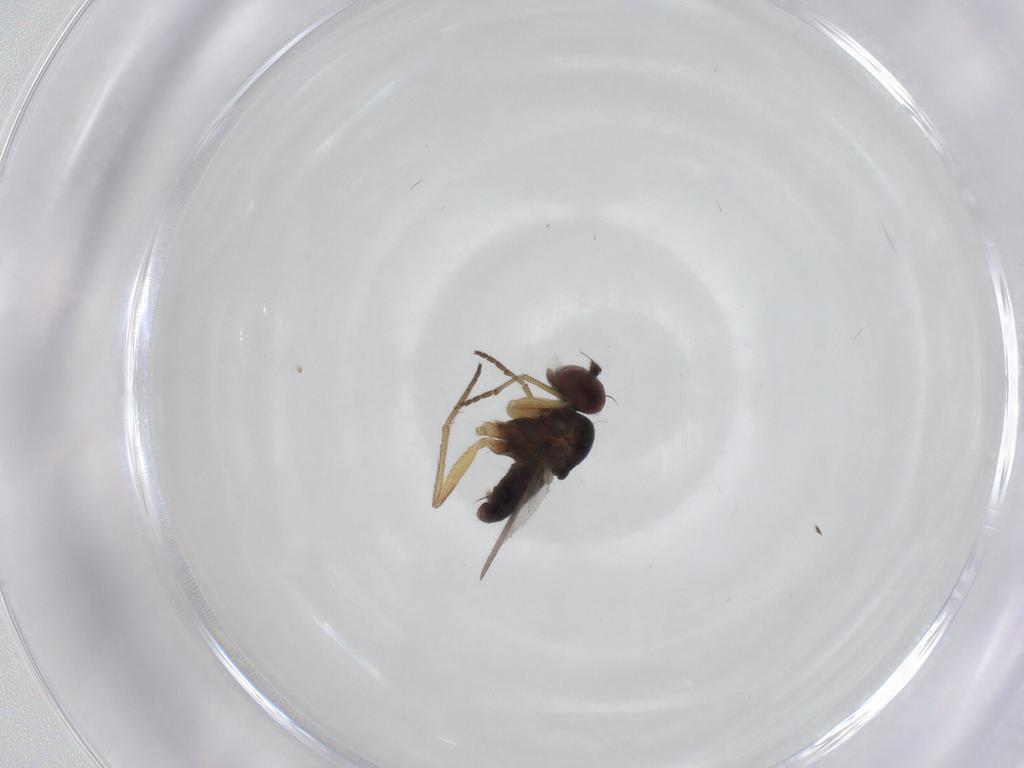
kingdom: Animalia
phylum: Arthropoda
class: Insecta
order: Diptera
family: Dolichopodidae
